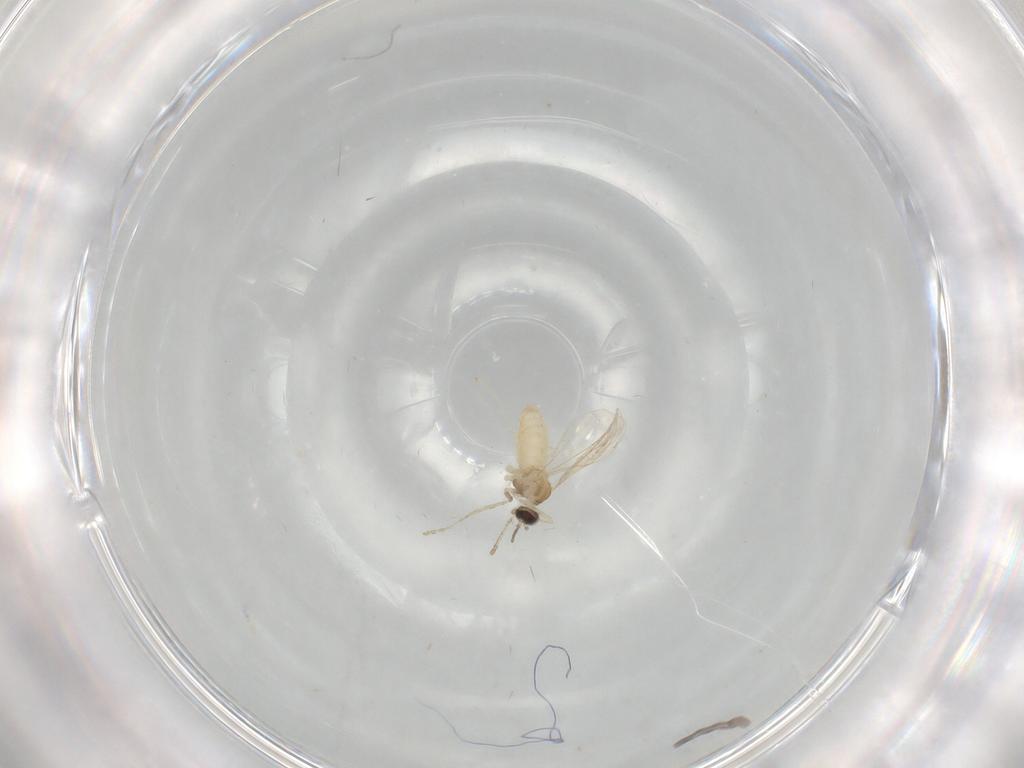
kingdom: Animalia
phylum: Arthropoda
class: Insecta
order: Diptera
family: Cecidomyiidae
